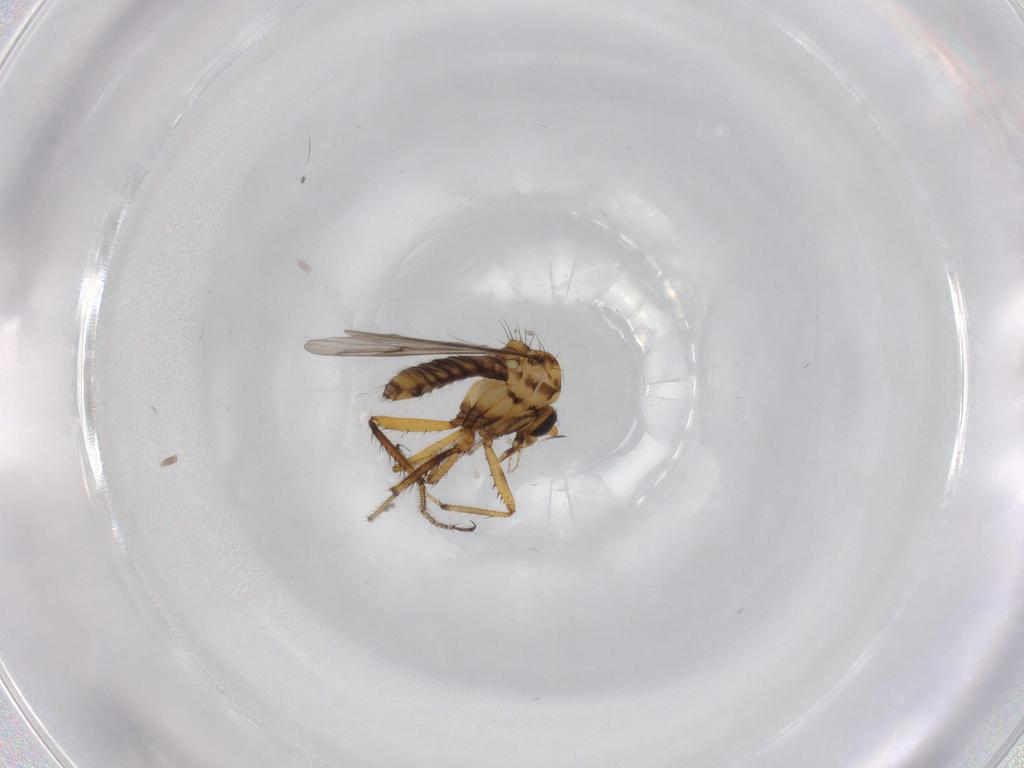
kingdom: Animalia
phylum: Arthropoda
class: Insecta
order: Diptera
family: Ceratopogonidae
